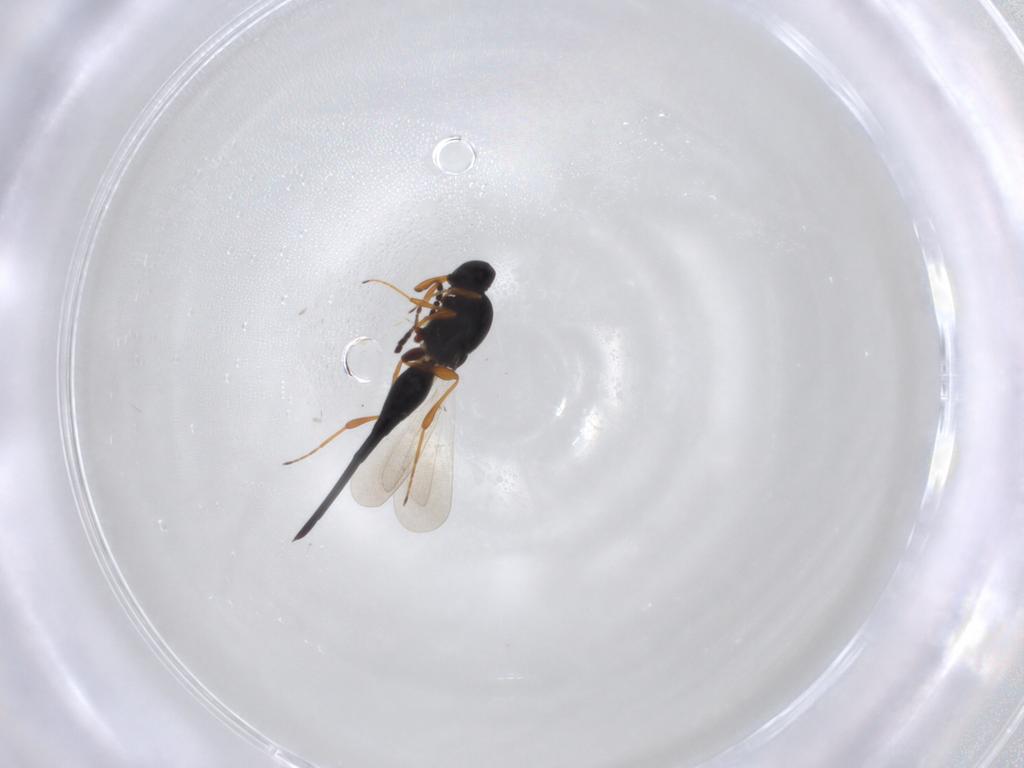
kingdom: Animalia
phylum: Arthropoda
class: Insecta
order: Hymenoptera
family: Platygastridae
